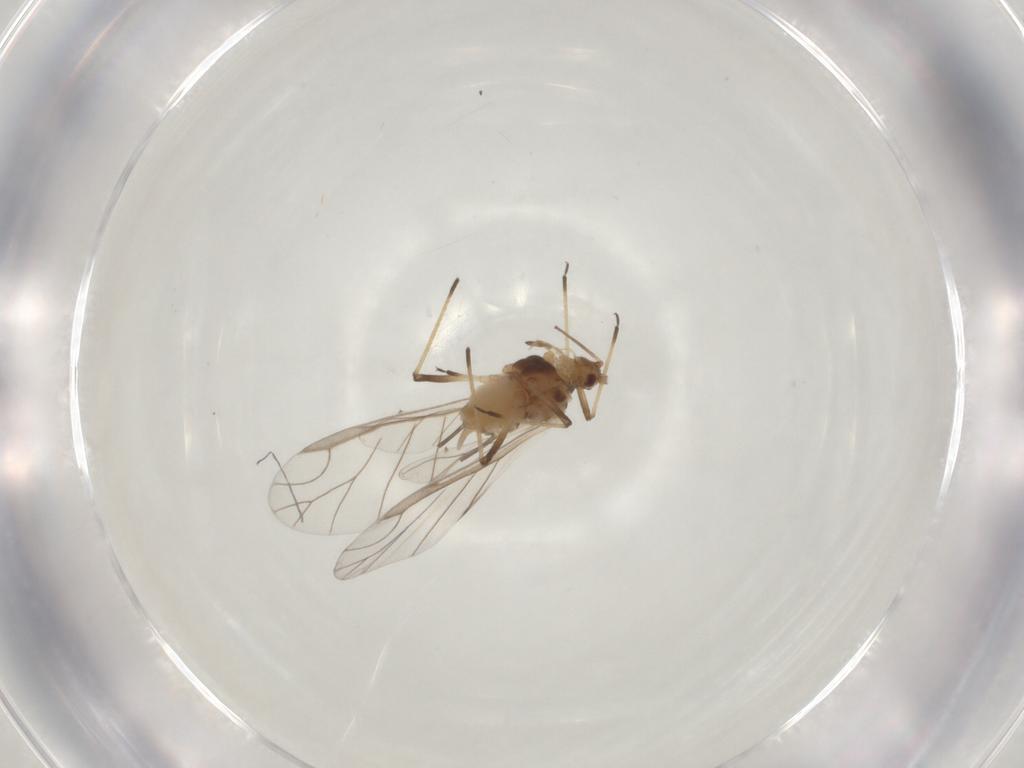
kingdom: Animalia
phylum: Arthropoda
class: Insecta
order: Hemiptera
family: Aphididae
